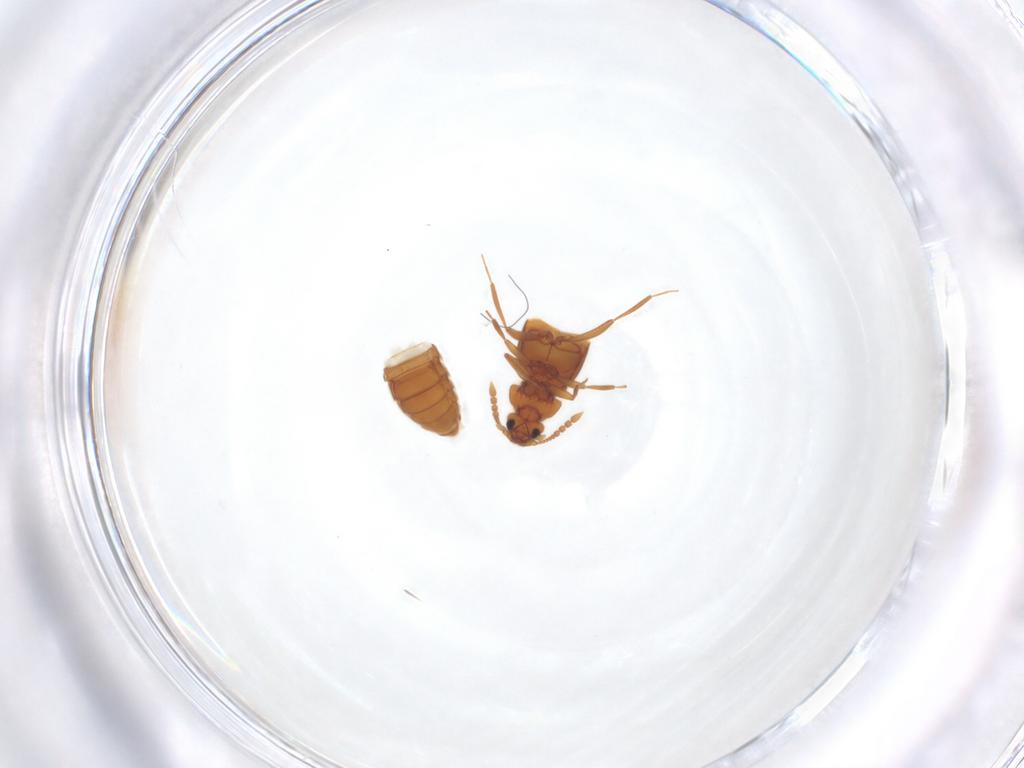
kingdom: Animalia
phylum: Arthropoda
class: Insecta
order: Coleoptera
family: Staphylinidae
